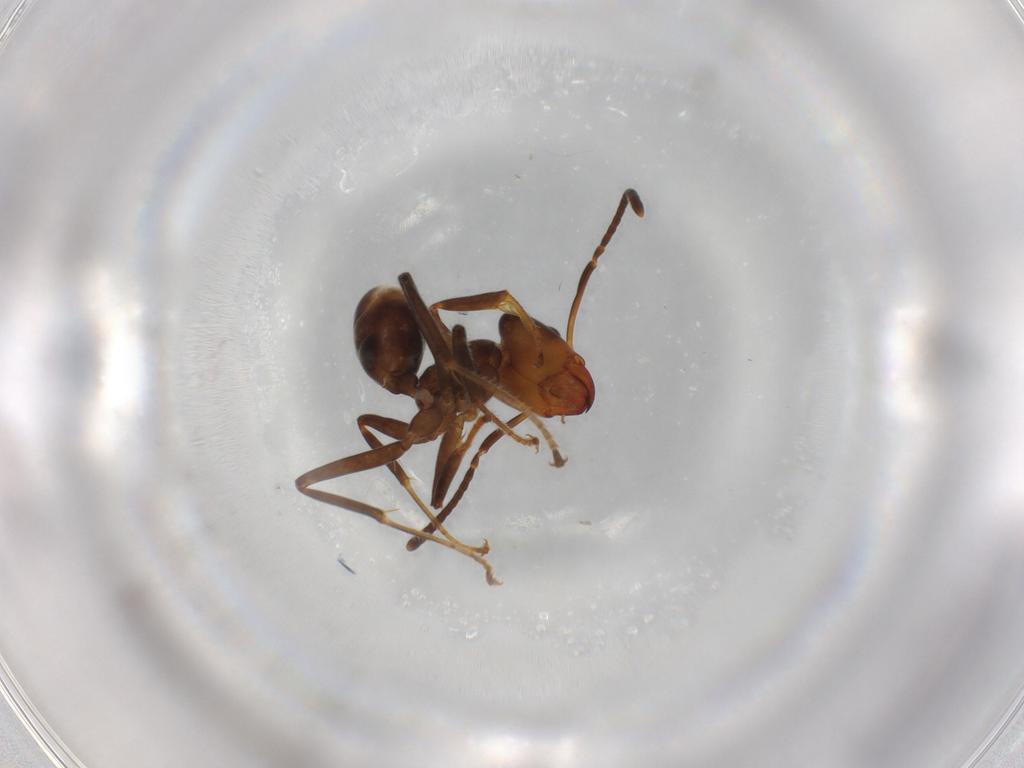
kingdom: Animalia
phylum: Arthropoda
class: Insecta
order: Hymenoptera
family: Formicidae
